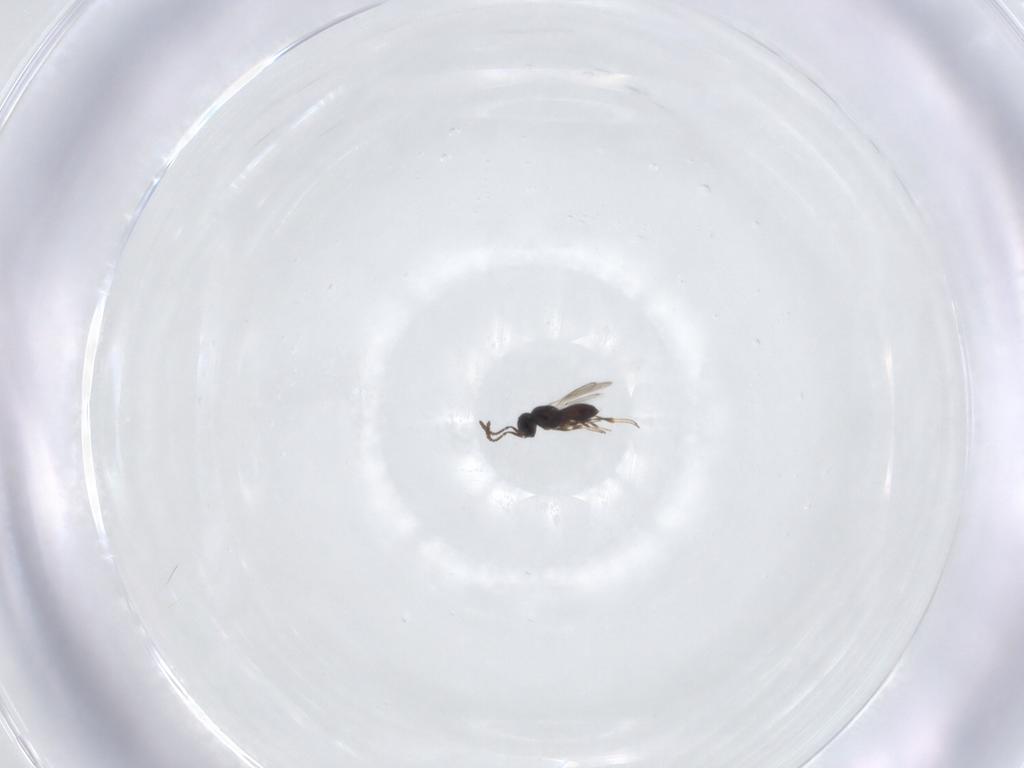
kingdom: Animalia
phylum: Arthropoda
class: Insecta
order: Hymenoptera
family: Scelionidae
